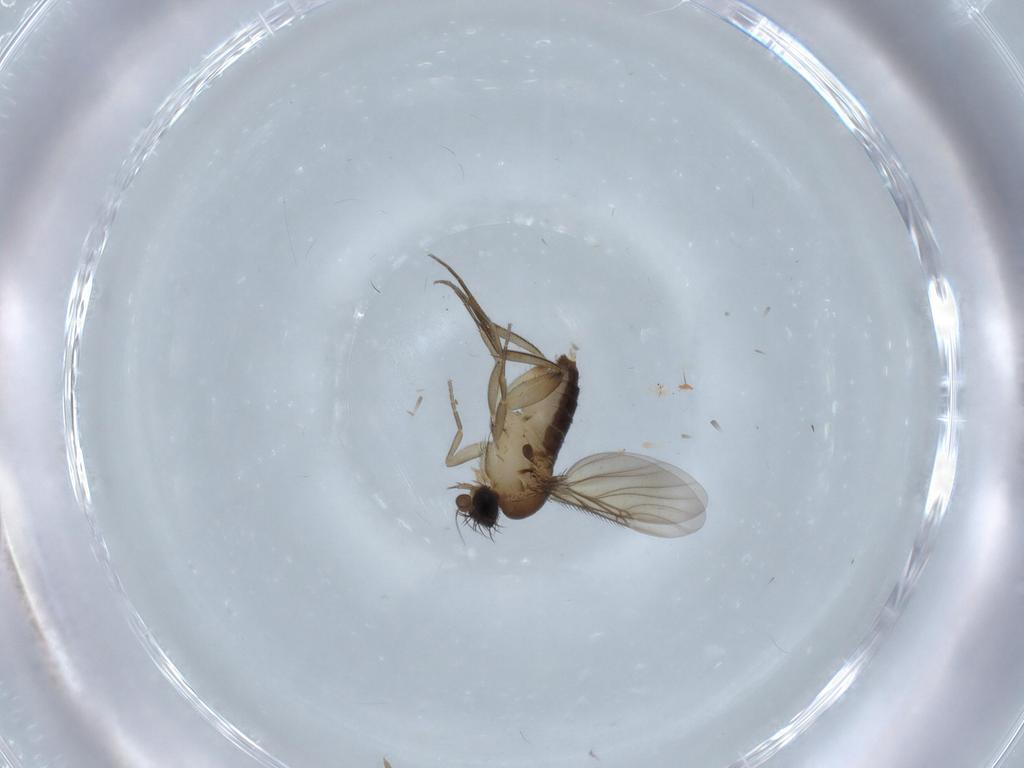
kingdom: Animalia
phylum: Arthropoda
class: Insecta
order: Diptera
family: Phoridae
